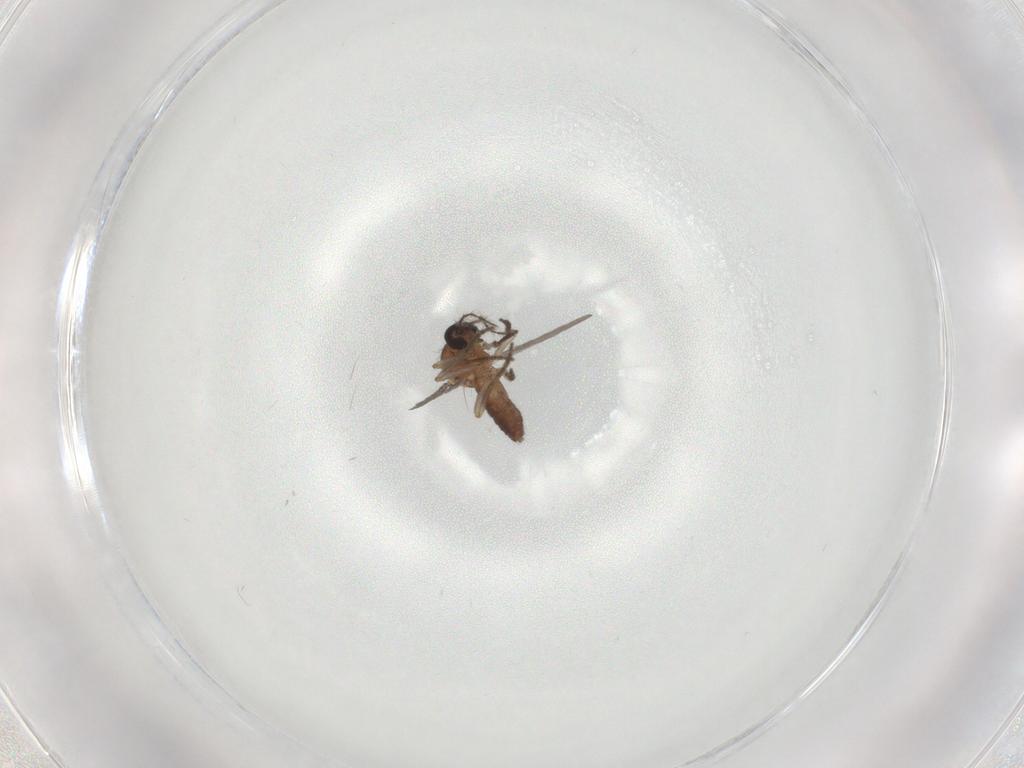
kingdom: Animalia
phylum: Arthropoda
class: Insecta
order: Diptera
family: Ceratopogonidae
